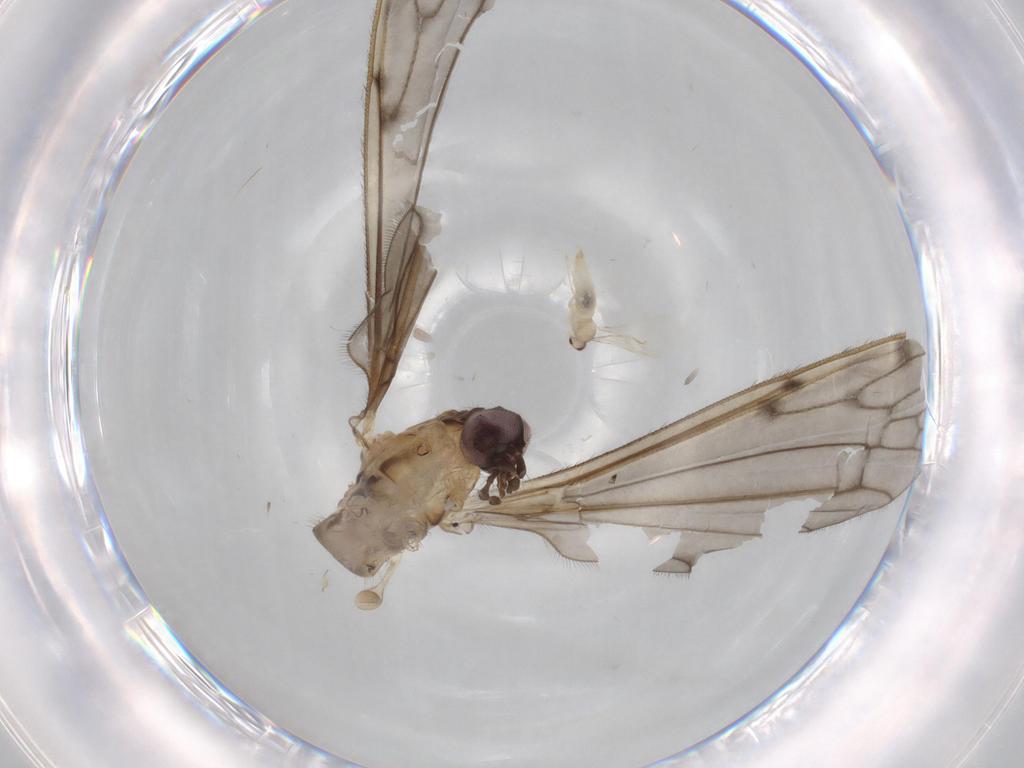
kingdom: Animalia
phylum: Arthropoda
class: Insecta
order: Diptera
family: Cecidomyiidae
